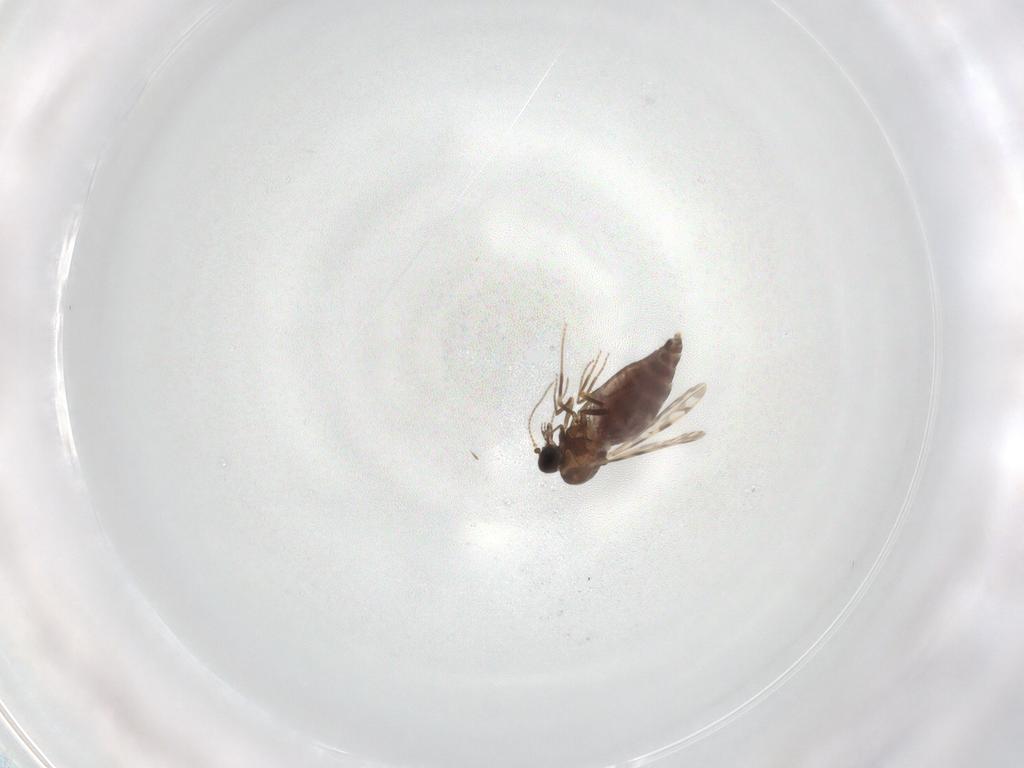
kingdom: Animalia
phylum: Arthropoda
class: Insecta
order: Diptera
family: Ceratopogonidae
